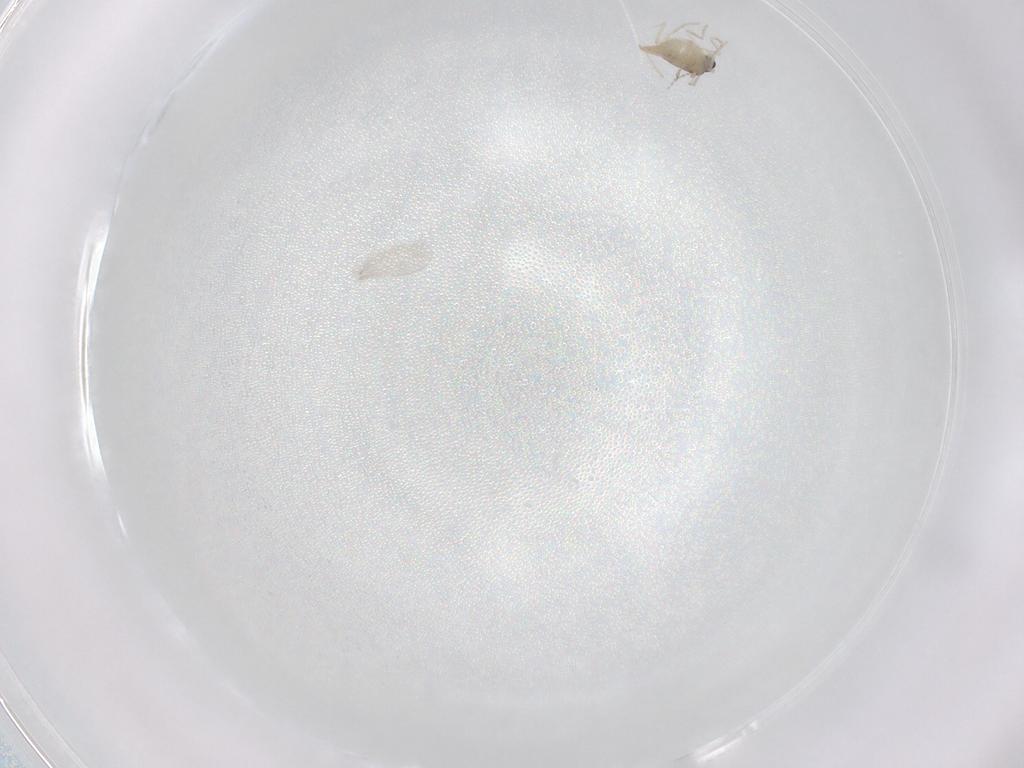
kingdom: Animalia
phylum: Arthropoda
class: Insecta
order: Diptera
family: Cecidomyiidae
